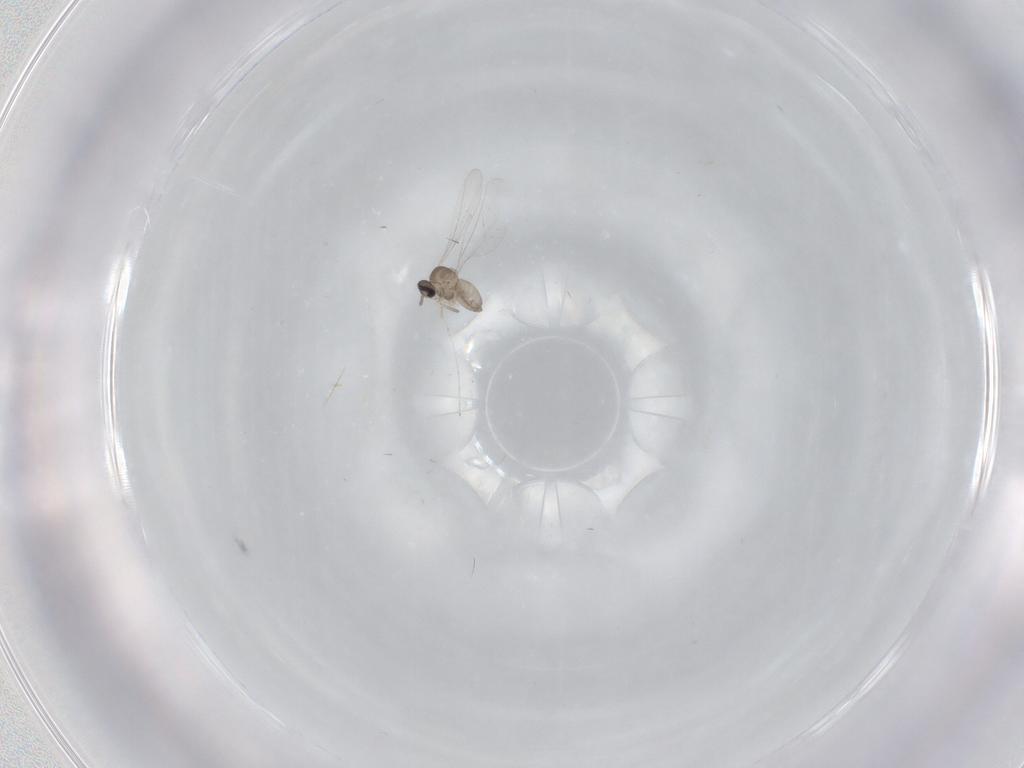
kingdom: Animalia
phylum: Arthropoda
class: Insecta
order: Diptera
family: Cecidomyiidae
